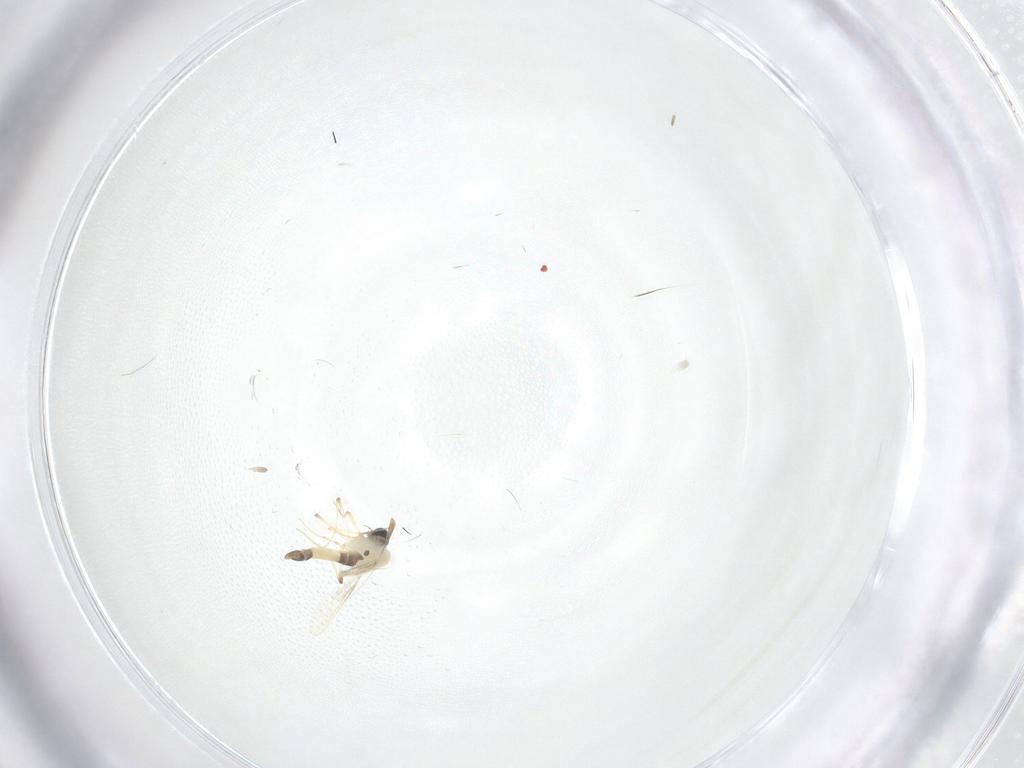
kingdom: Animalia
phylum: Arthropoda
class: Insecta
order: Diptera
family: Chironomidae
